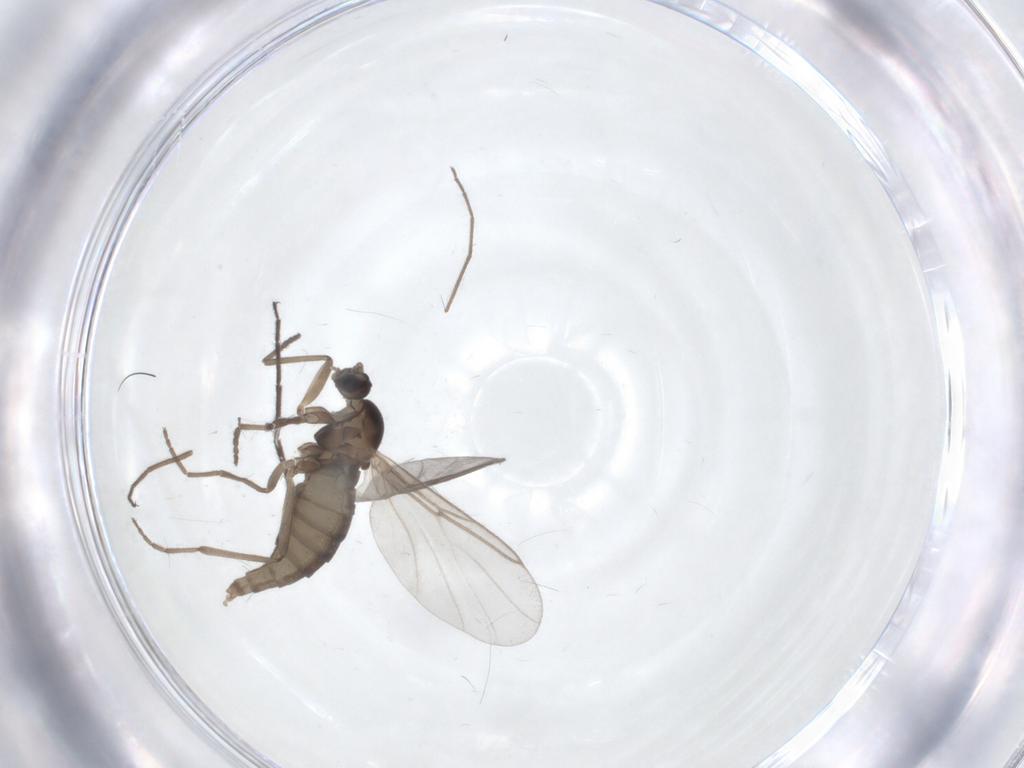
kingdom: Animalia
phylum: Arthropoda
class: Insecta
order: Diptera
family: Cecidomyiidae
